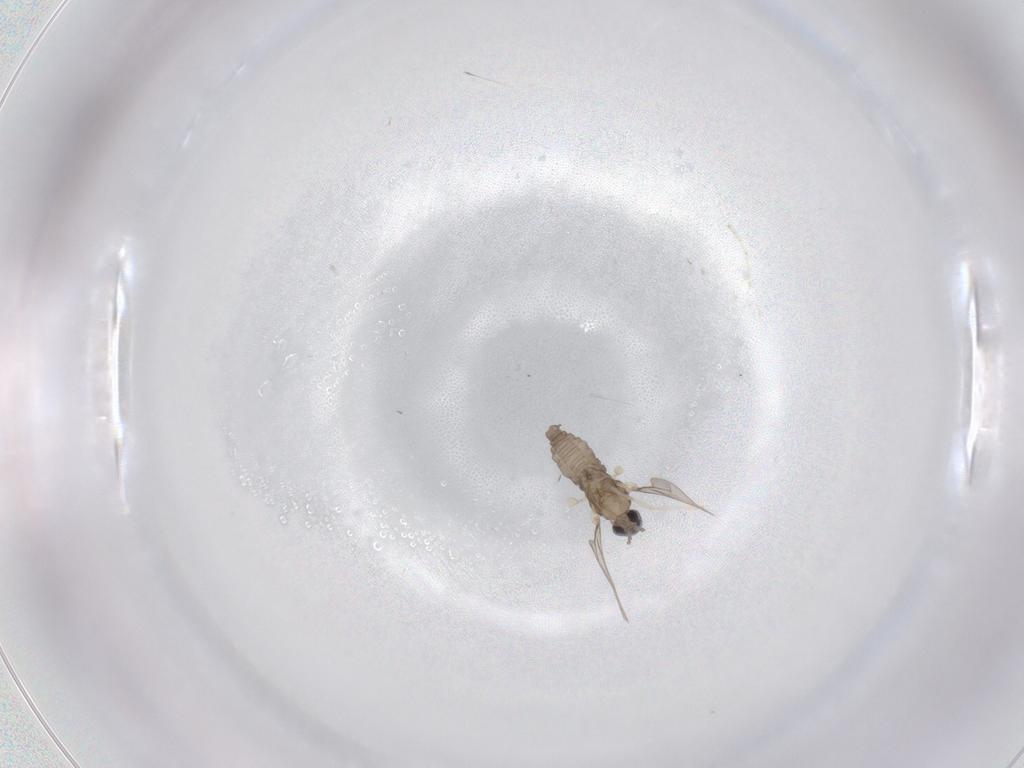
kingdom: Animalia
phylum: Arthropoda
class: Insecta
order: Diptera
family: Cecidomyiidae
